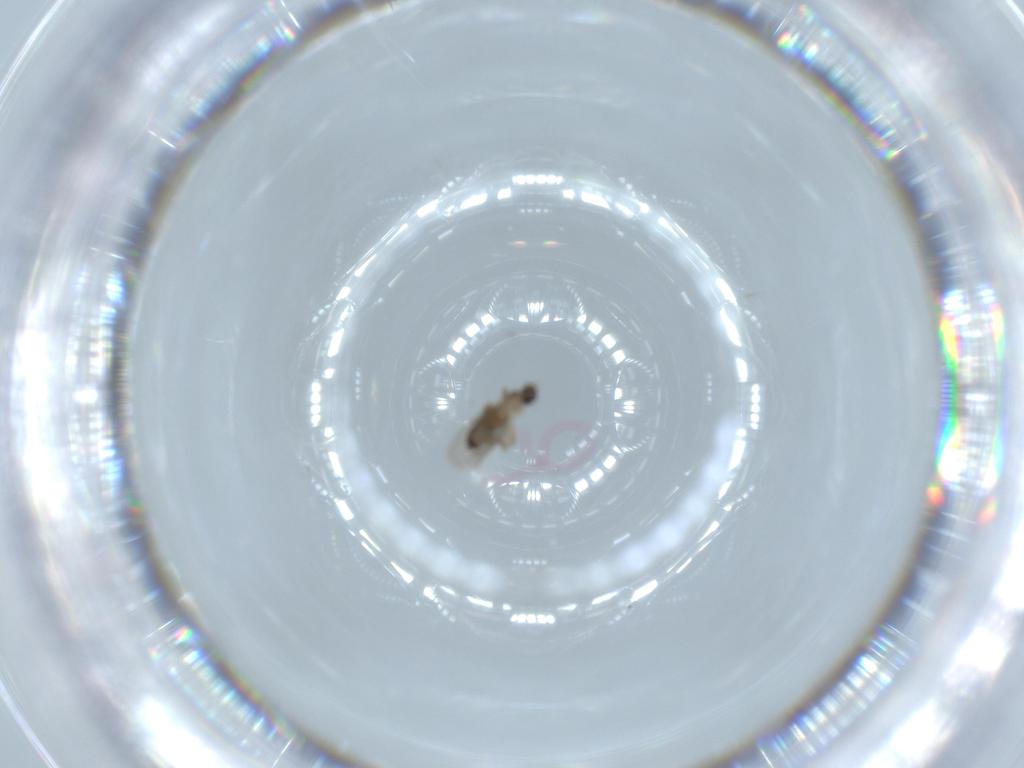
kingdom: Animalia
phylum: Arthropoda
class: Insecta
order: Diptera
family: Phoridae
